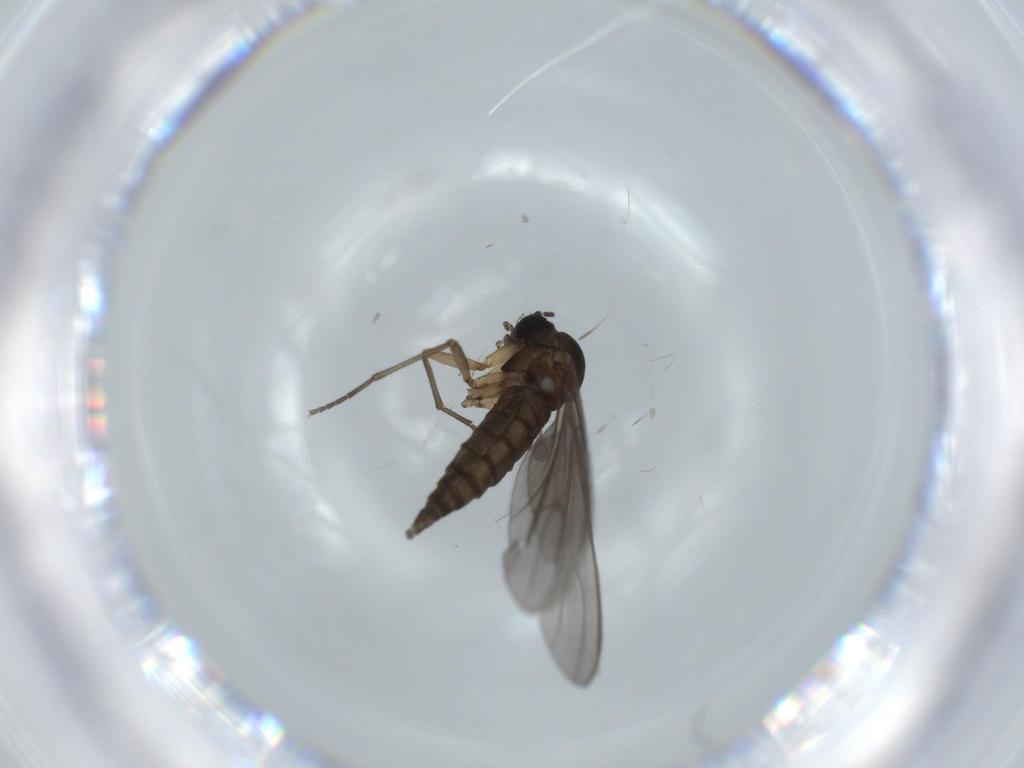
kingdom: Animalia
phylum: Arthropoda
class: Insecta
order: Diptera
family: Sciaridae
